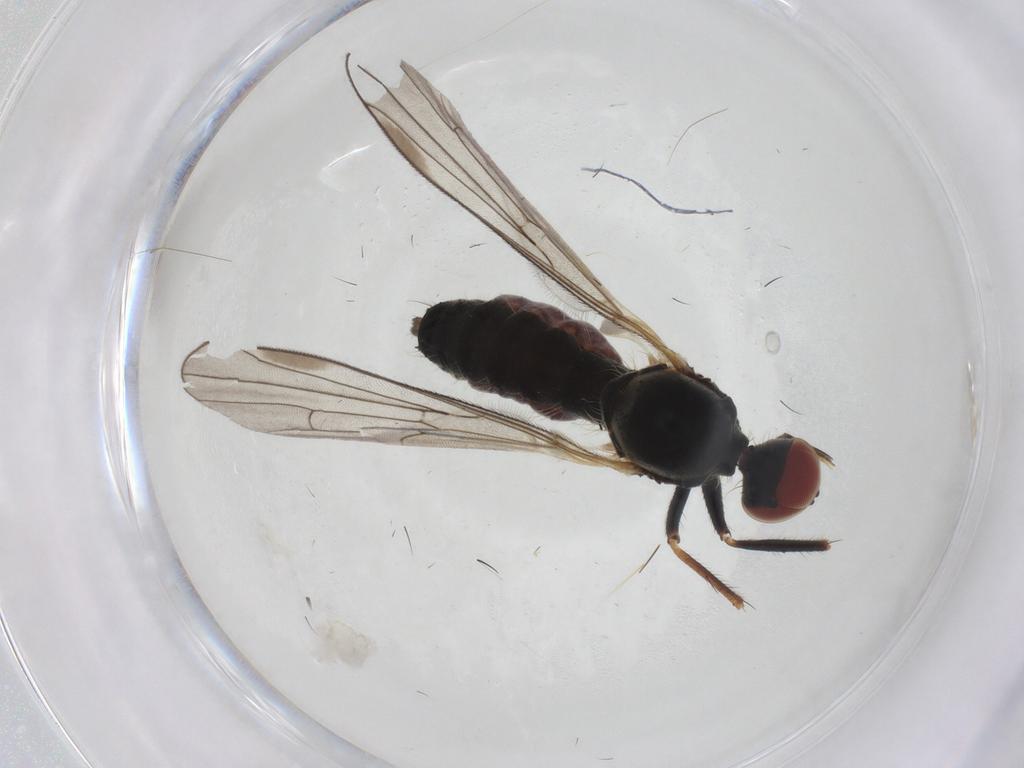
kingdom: Animalia
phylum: Arthropoda
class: Insecta
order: Diptera
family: Hybotidae
